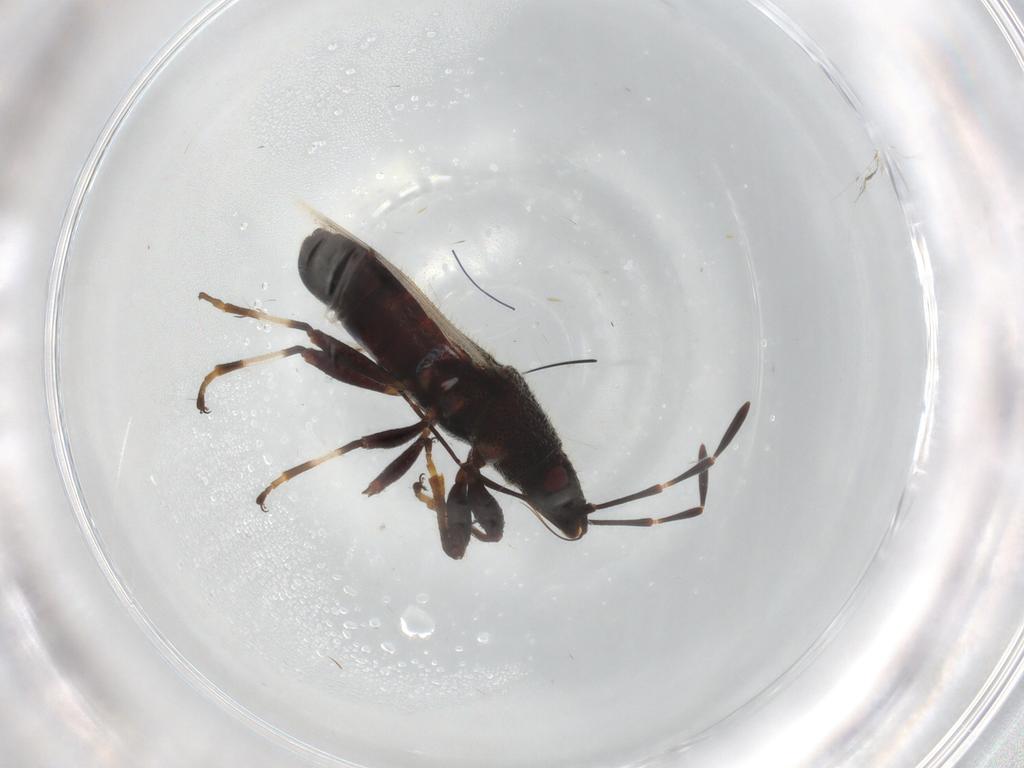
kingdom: Animalia
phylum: Arthropoda
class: Insecta
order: Hemiptera
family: Oxycarenidae
